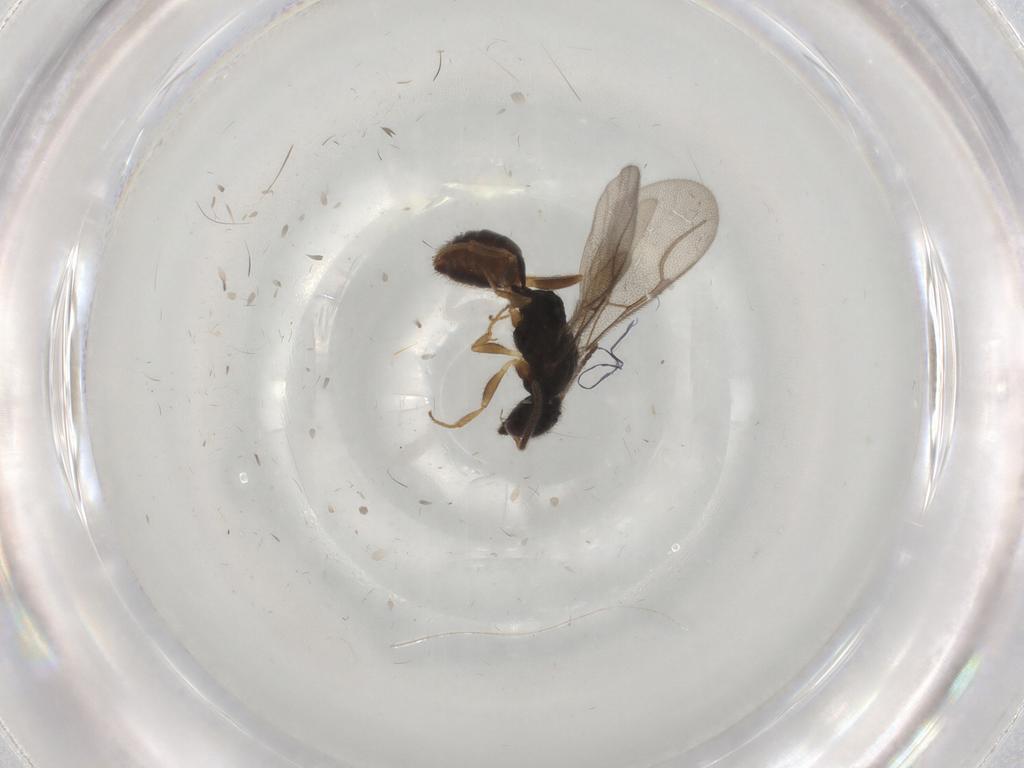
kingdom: Animalia
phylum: Arthropoda
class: Insecta
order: Hymenoptera
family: Bethylidae
